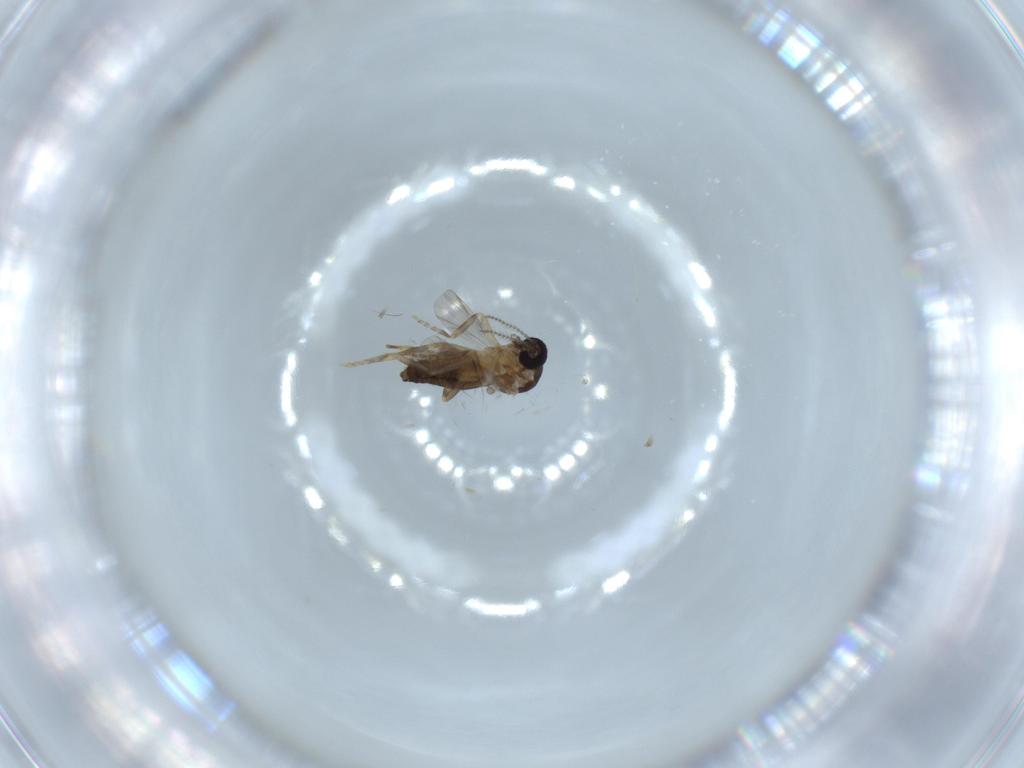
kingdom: Animalia
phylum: Arthropoda
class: Insecta
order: Diptera
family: Ceratopogonidae
